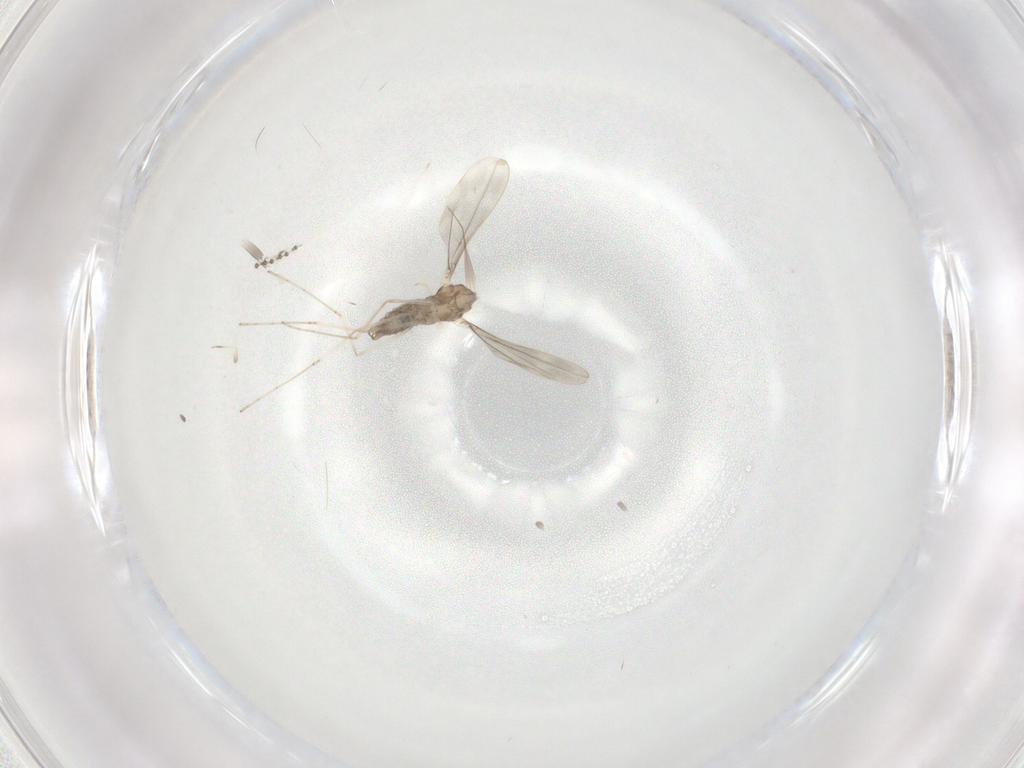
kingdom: Animalia
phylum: Arthropoda
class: Insecta
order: Diptera
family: Cecidomyiidae
